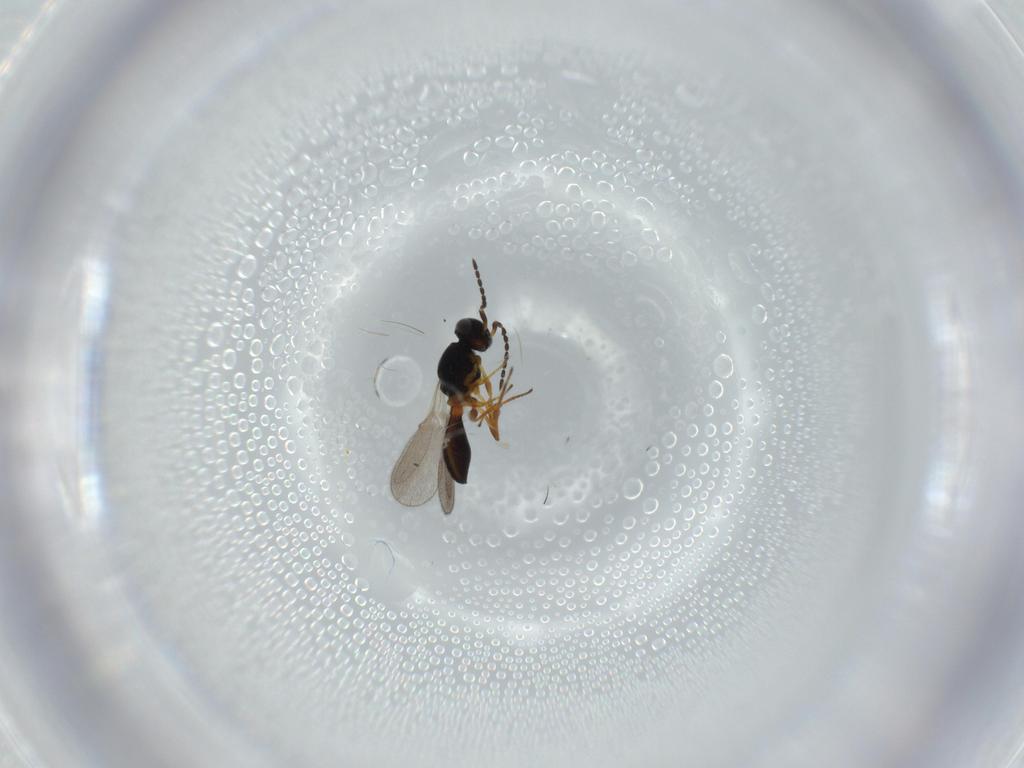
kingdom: Animalia
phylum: Arthropoda
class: Insecta
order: Hymenoptera
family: Platygastridae
